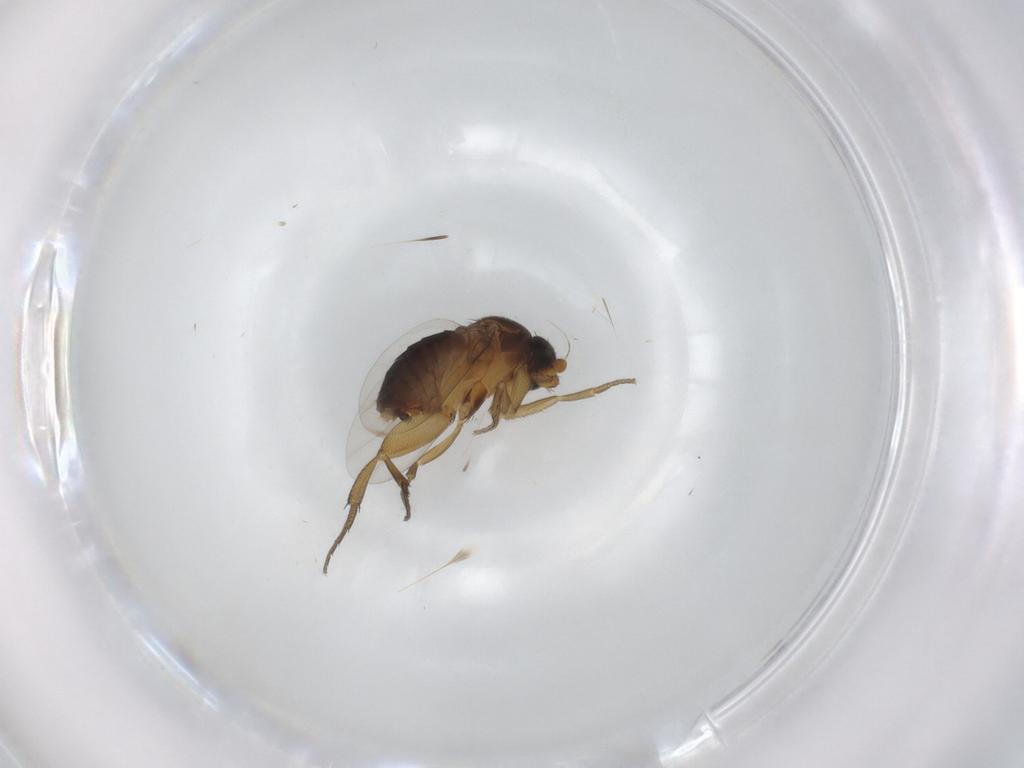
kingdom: Animalia
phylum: Arthropoda
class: Insecta
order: Diptera
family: Phoridae
